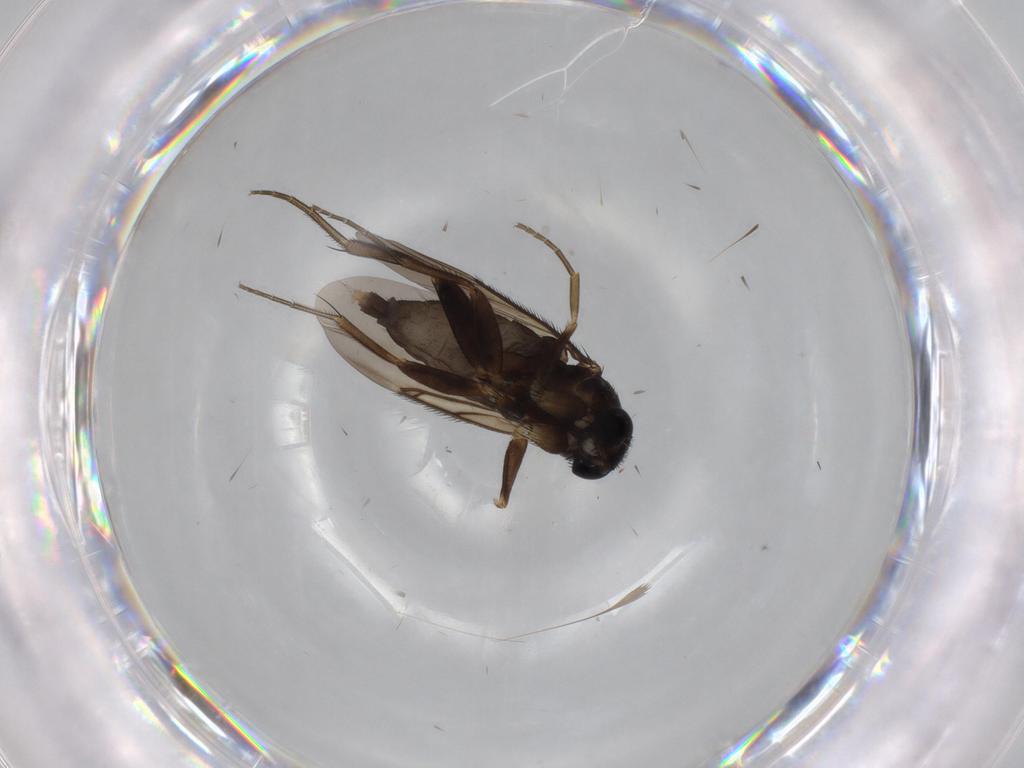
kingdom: Animalia
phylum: Arthropoda
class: Insecta
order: Diptera
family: Phoridae
